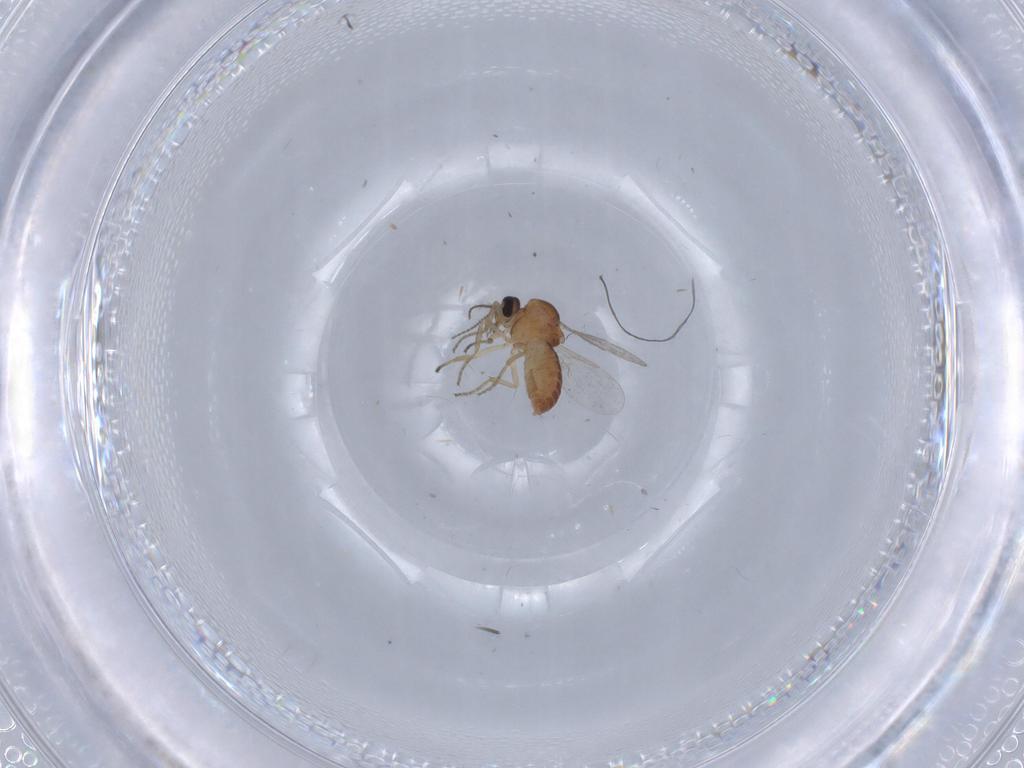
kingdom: Animalia
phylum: Arthropoda
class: Insecta
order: Diptera
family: Ceratopogonidae
